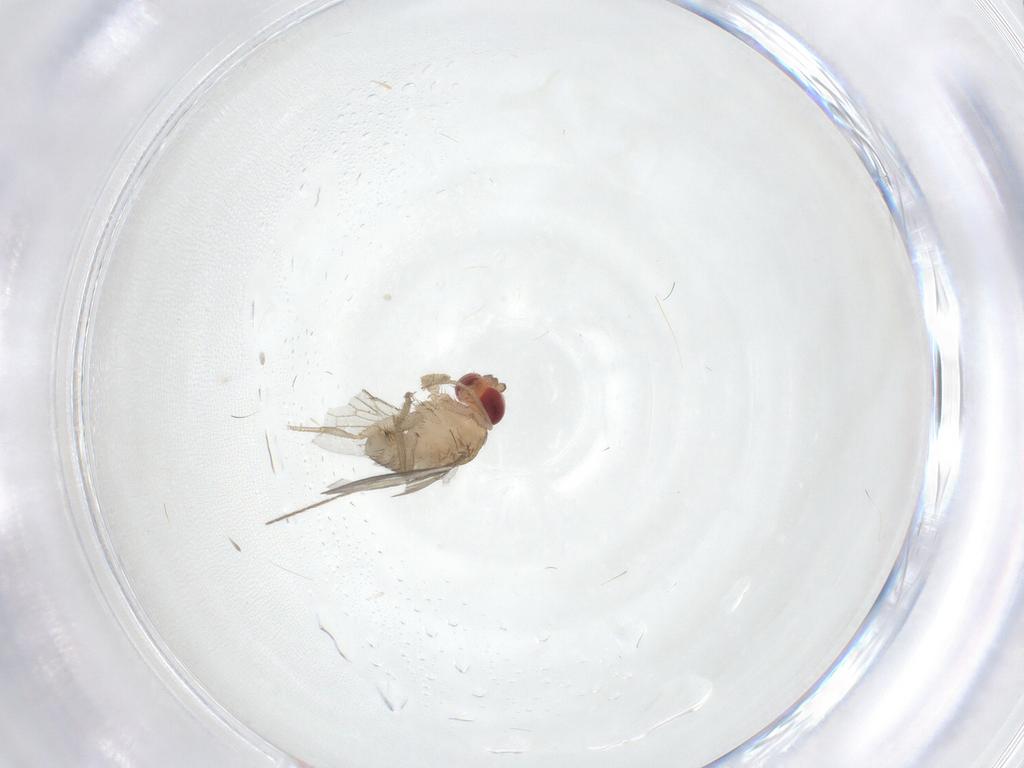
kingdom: Animalia
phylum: Arthropoda
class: Insecta
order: Diptera
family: Drosophilidae
